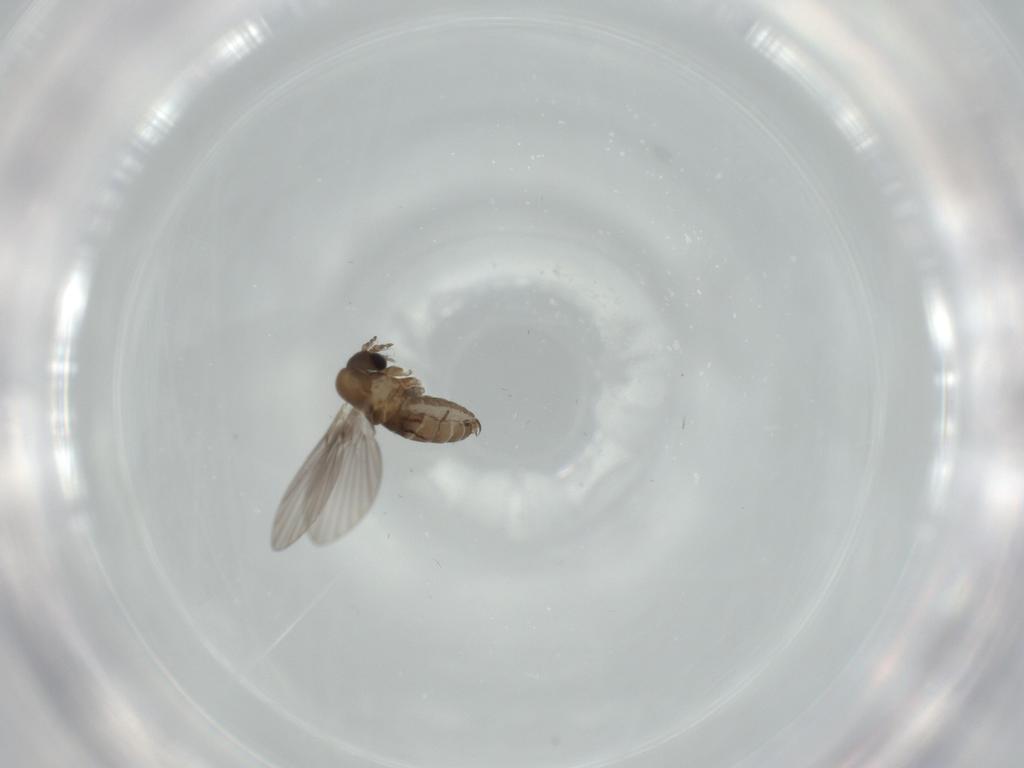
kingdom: Animalia
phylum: Arthropoda
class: Insecta
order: Diptera
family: Psychodidae
